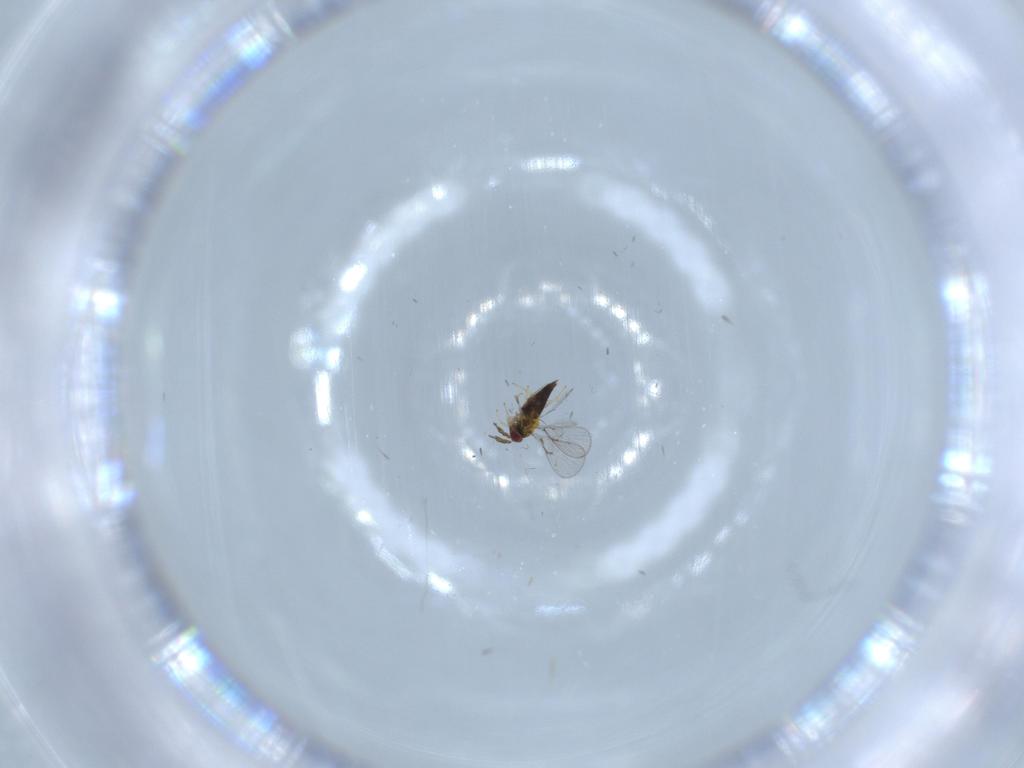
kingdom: Animalia
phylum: Arthropoda
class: Insecta
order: Hymenoptera
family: Trichogrammatidae
